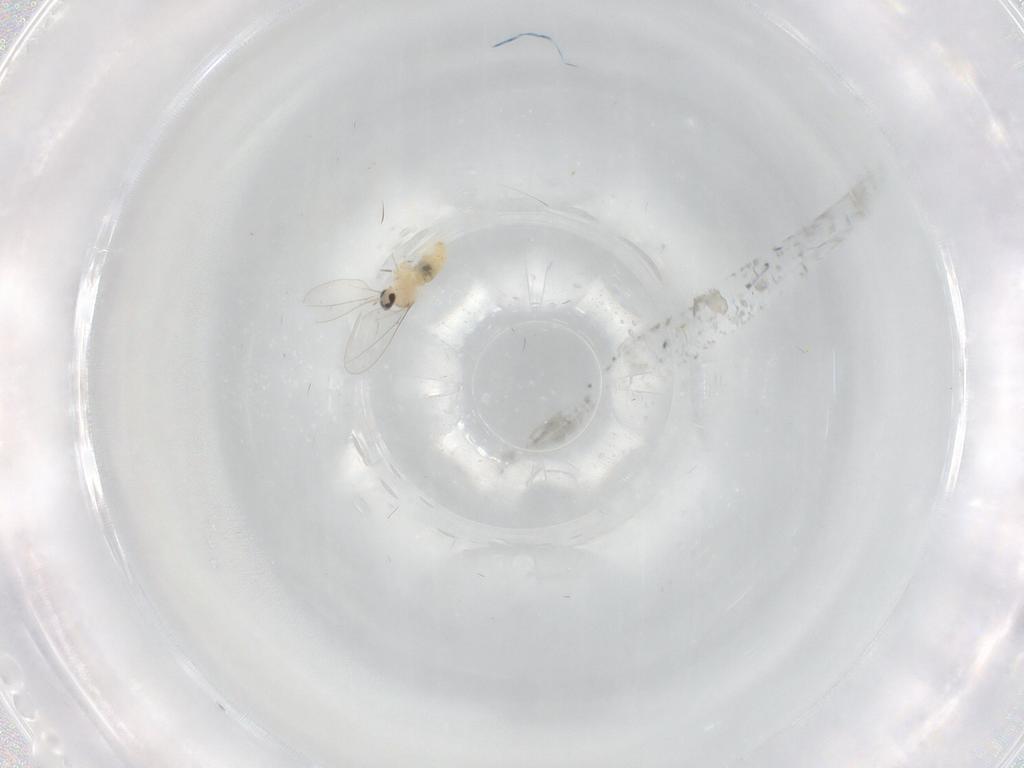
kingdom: Animalia
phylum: Arthropoda
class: Insecta
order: Diptera
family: Cecidomyiidae
